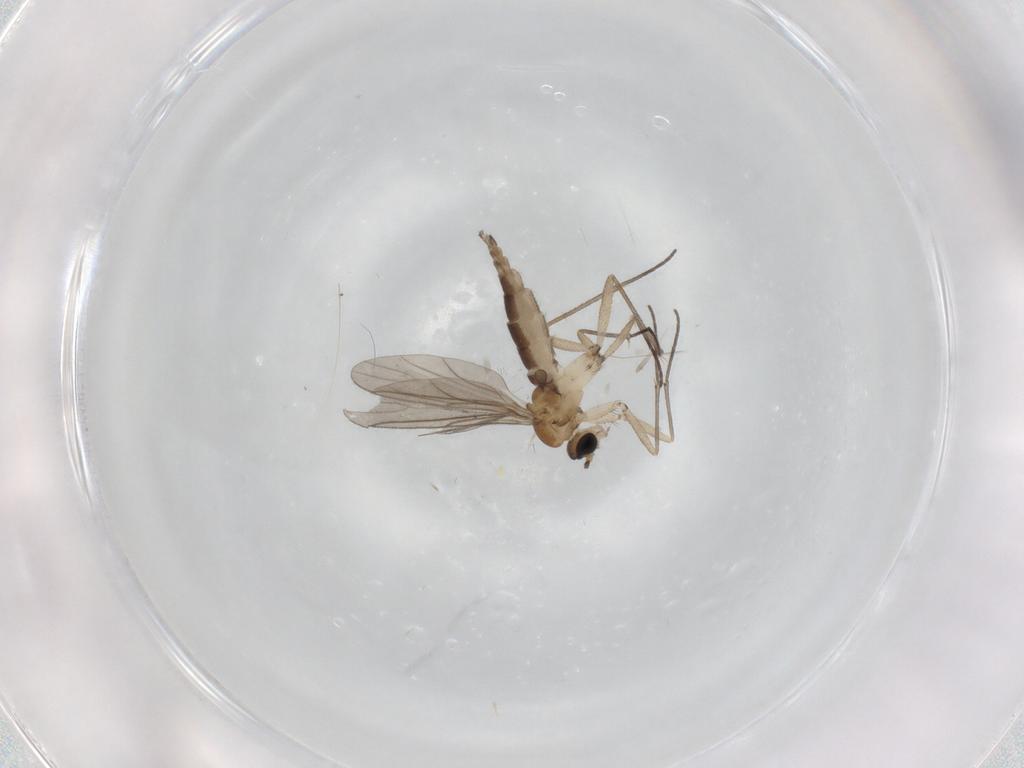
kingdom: Animalia
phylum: Arthropoda
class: Insecta
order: Diptera
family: Sciaridae
